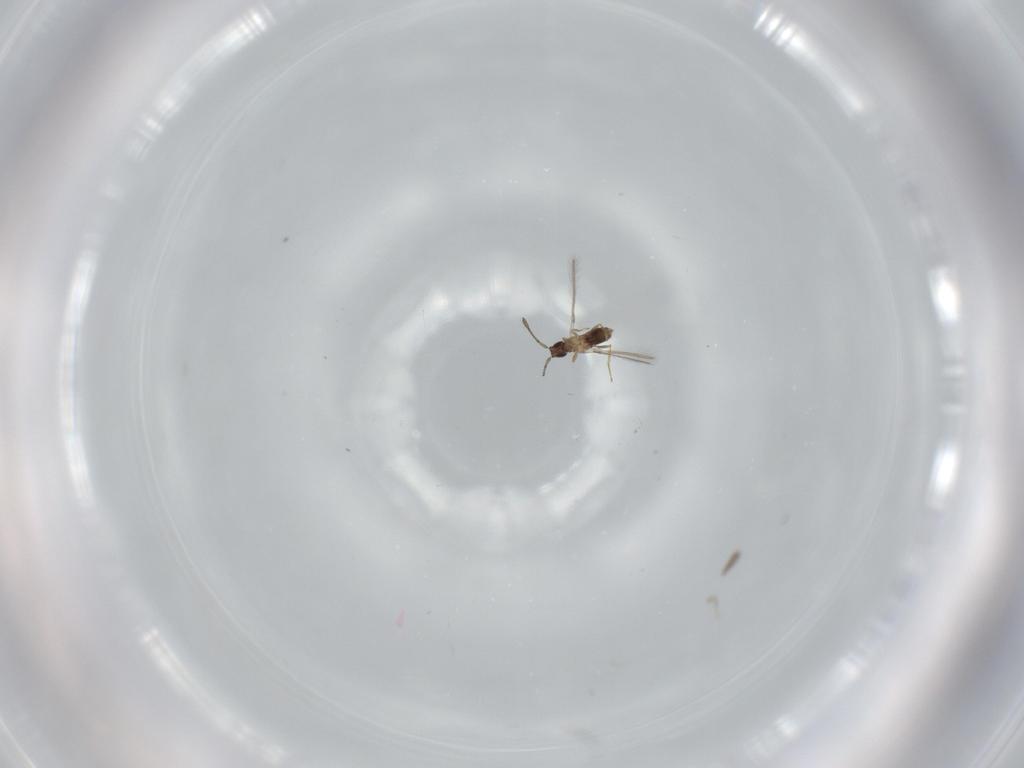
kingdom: Animalia
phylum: Arthropoda
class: Insecta
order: Hymenoptera
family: Mymaridae
